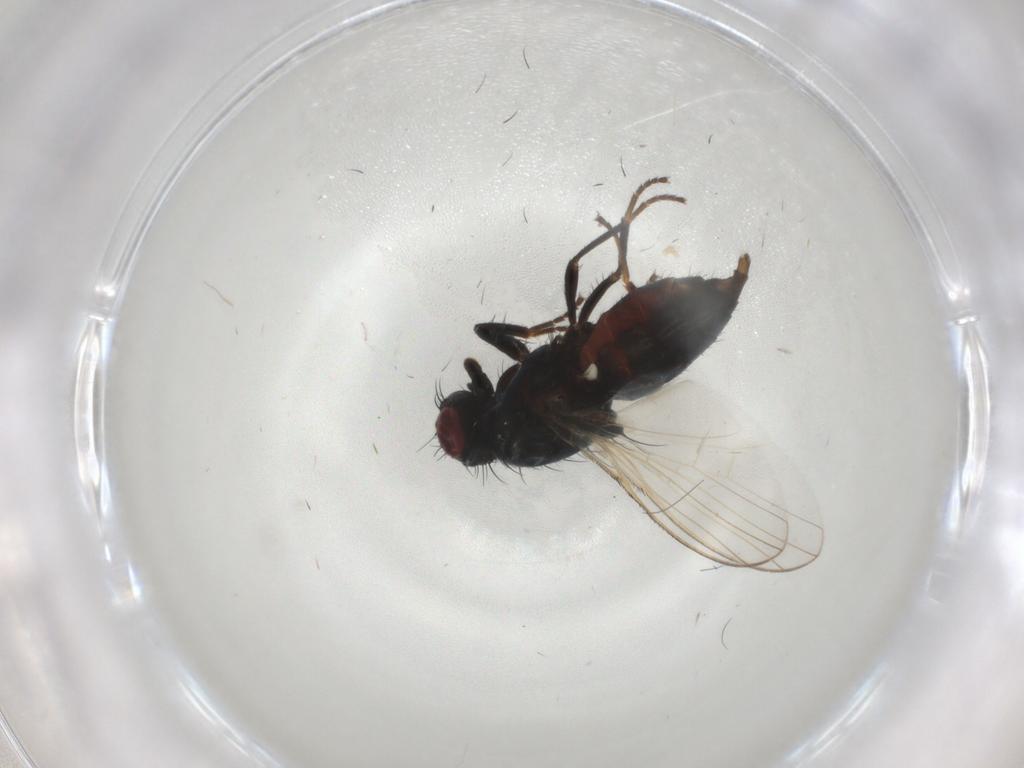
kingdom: Animalia
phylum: Arthropoda
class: Insecta
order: Diptera
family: Carnidae
